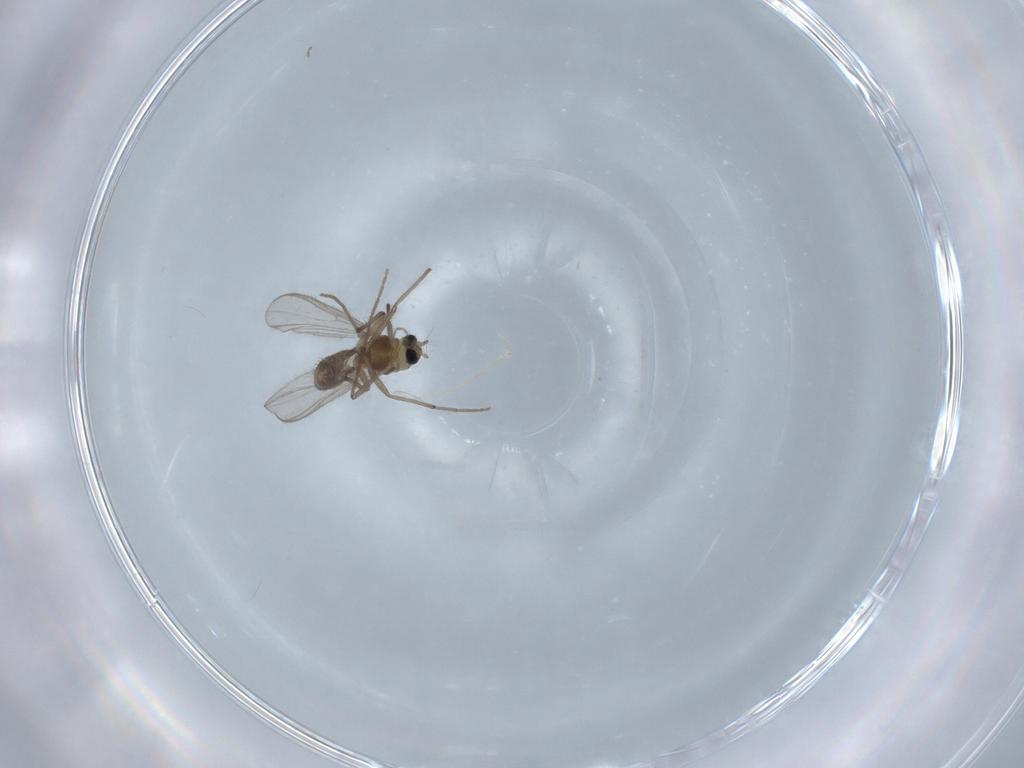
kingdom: Animalia
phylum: Arthropoda
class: Insecta
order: Diptera
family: Chironomidae
